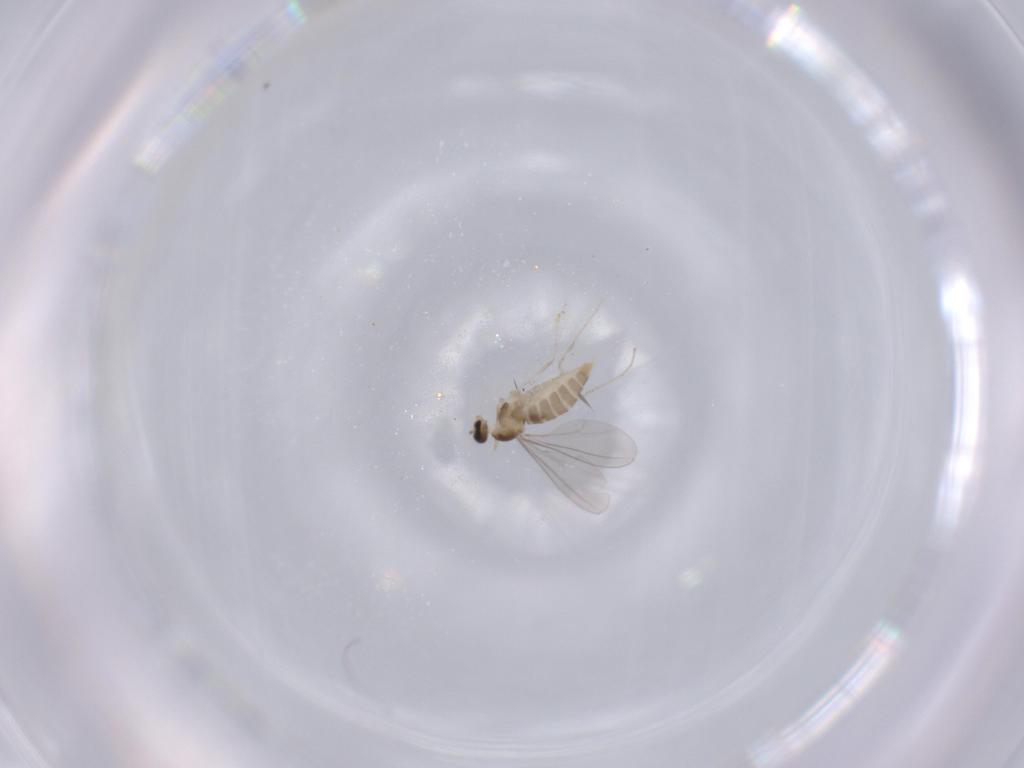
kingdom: Animalia
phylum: Arthropoda
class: Insecta
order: Diptera
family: Cecidomyiidae
